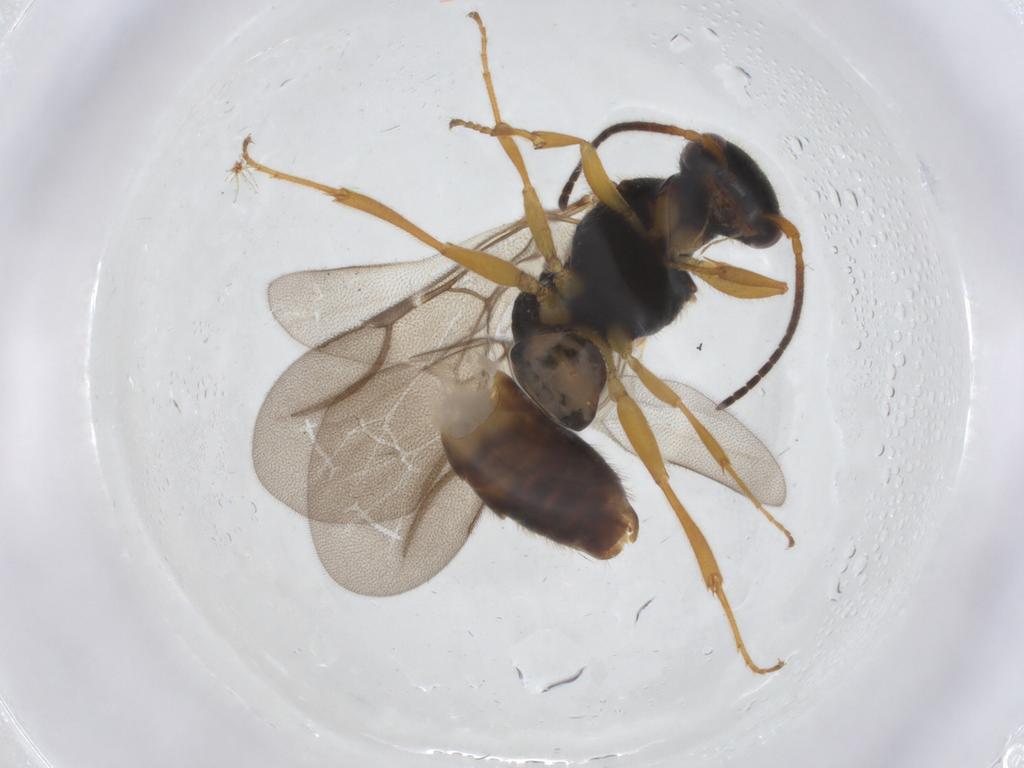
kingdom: Animalia
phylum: Arthropoda
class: Insecta
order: Hymenoptera
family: Bethylidae
